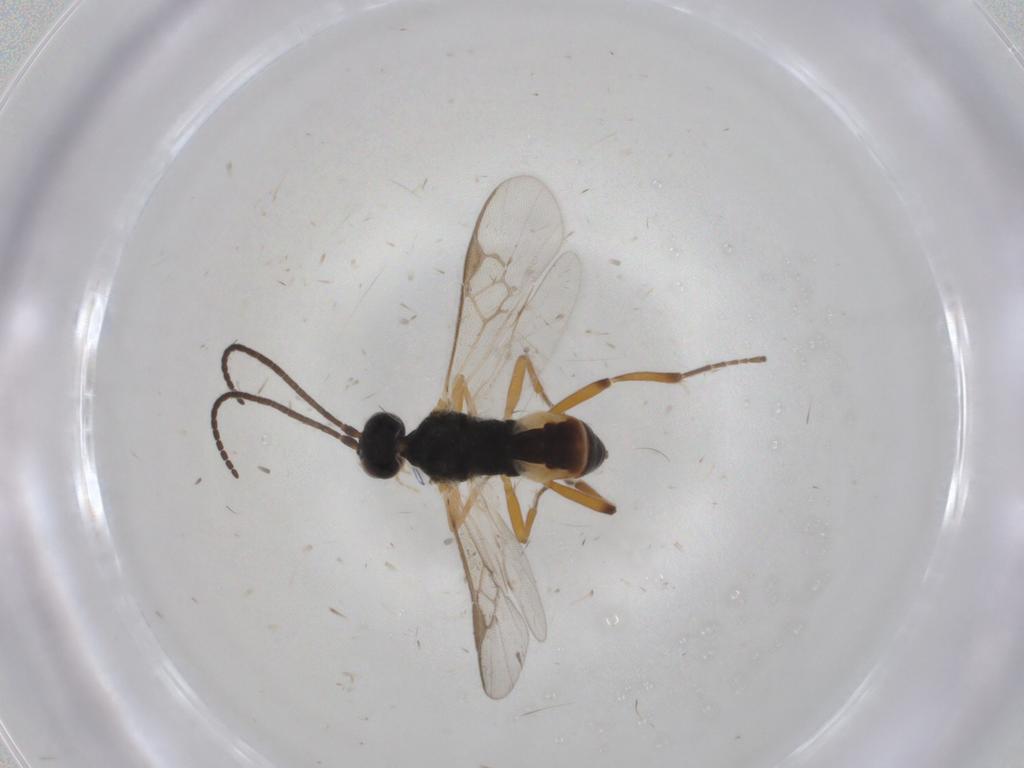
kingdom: Animalia
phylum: Arthropoda
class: Insecta
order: Hymenoptera
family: Braconidae
